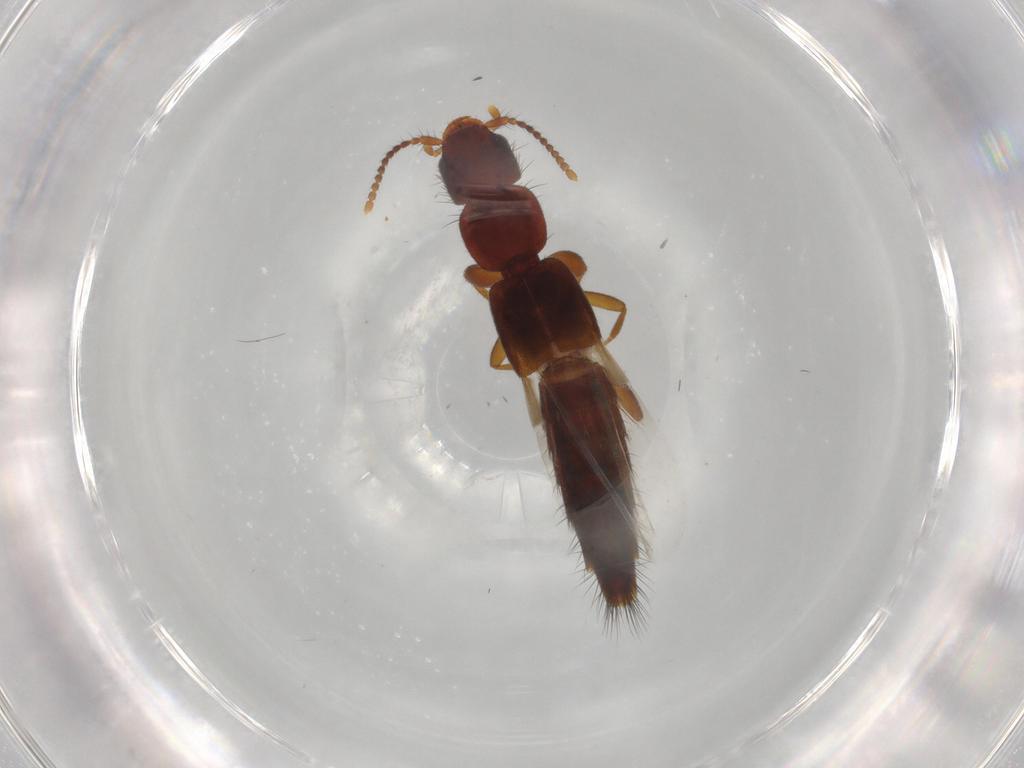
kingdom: Animalia
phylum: Arthropoda
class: Insecta
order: Coleoptera
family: Staphylinidae
